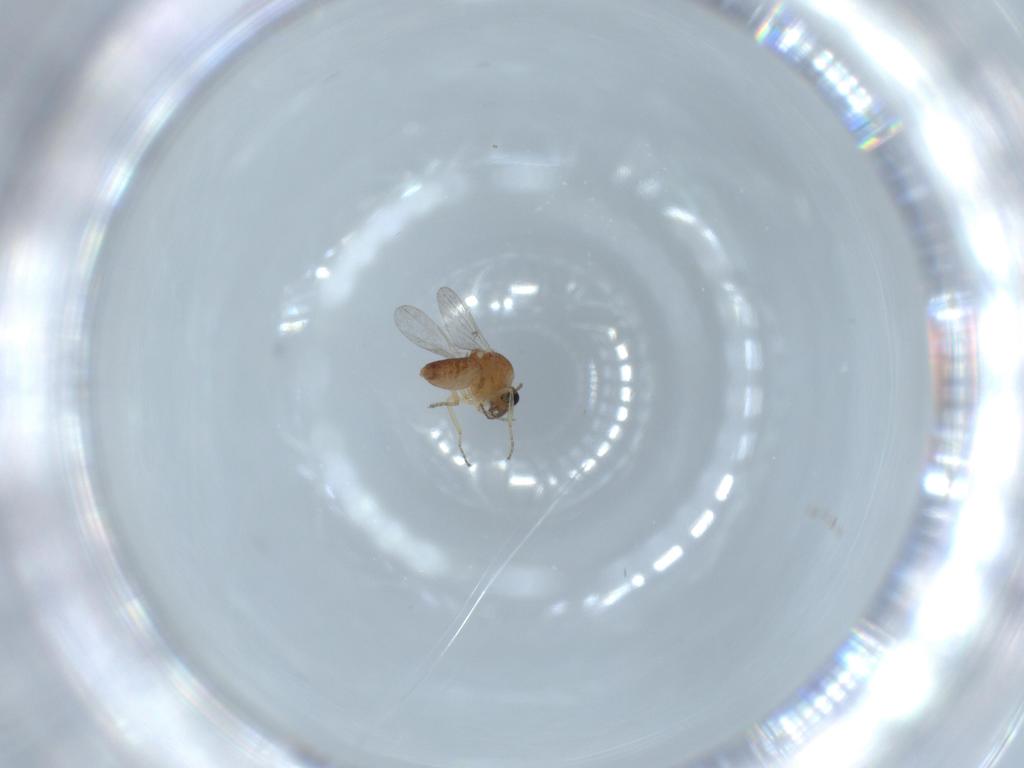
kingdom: Animalia
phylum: Arthropoda
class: Insecta
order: Diptera
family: Ceratopogonidae
